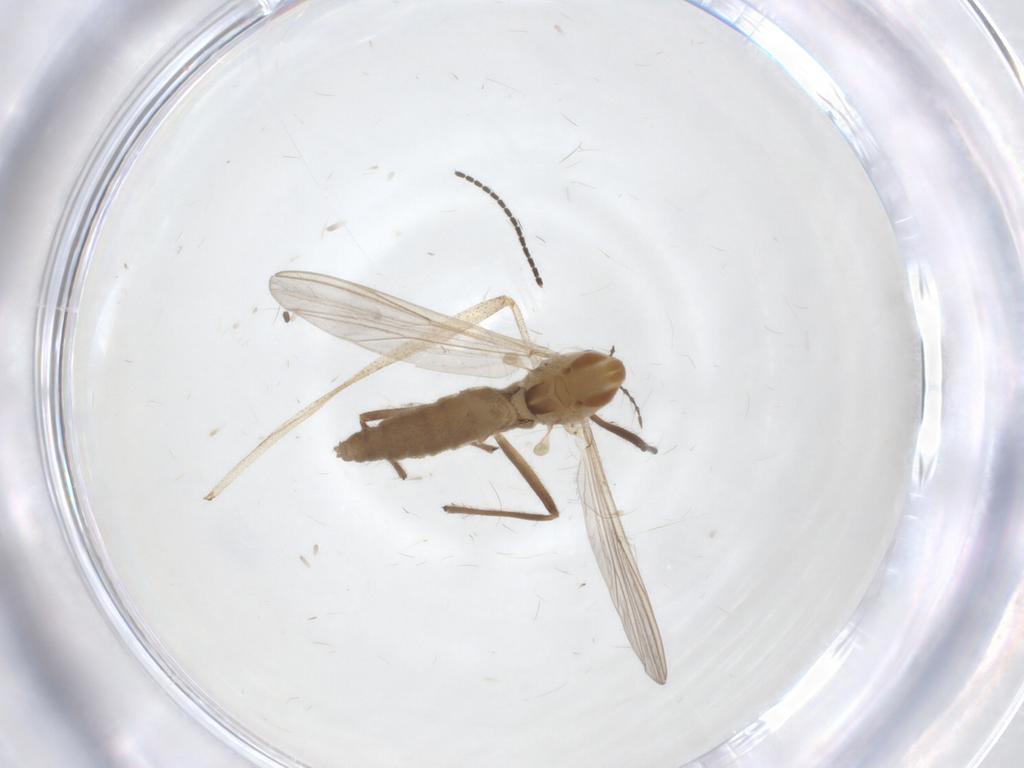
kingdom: Animalia
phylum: Arthropoda
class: Insecta
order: Diptera
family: Chironomidae
